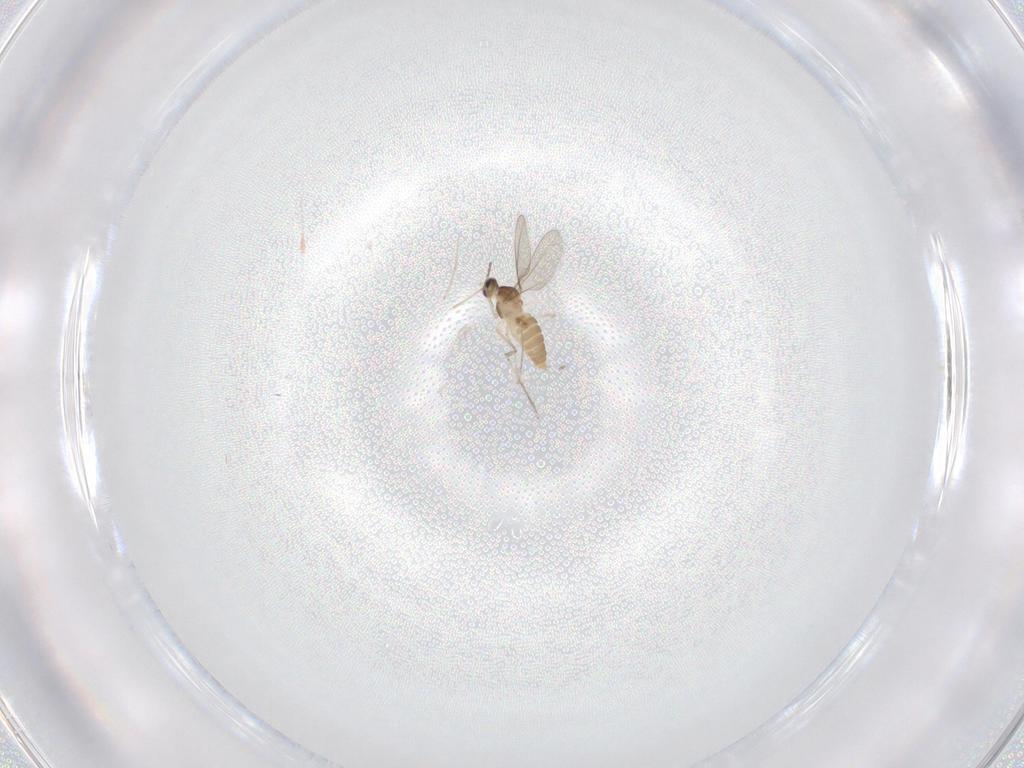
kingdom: Animalia
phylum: Arthropoda
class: Insecta
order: Diptera
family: Cecidomyiidae
